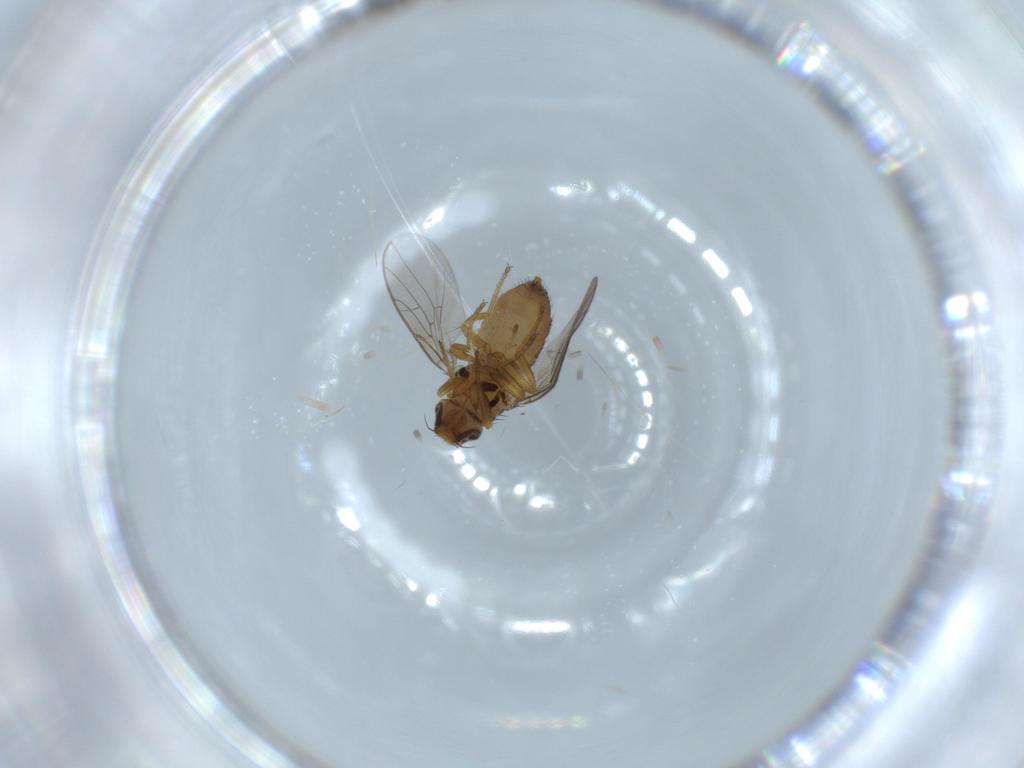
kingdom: Animalia
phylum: Arthropoda
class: Insecta
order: Diptera
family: Chloropidae
